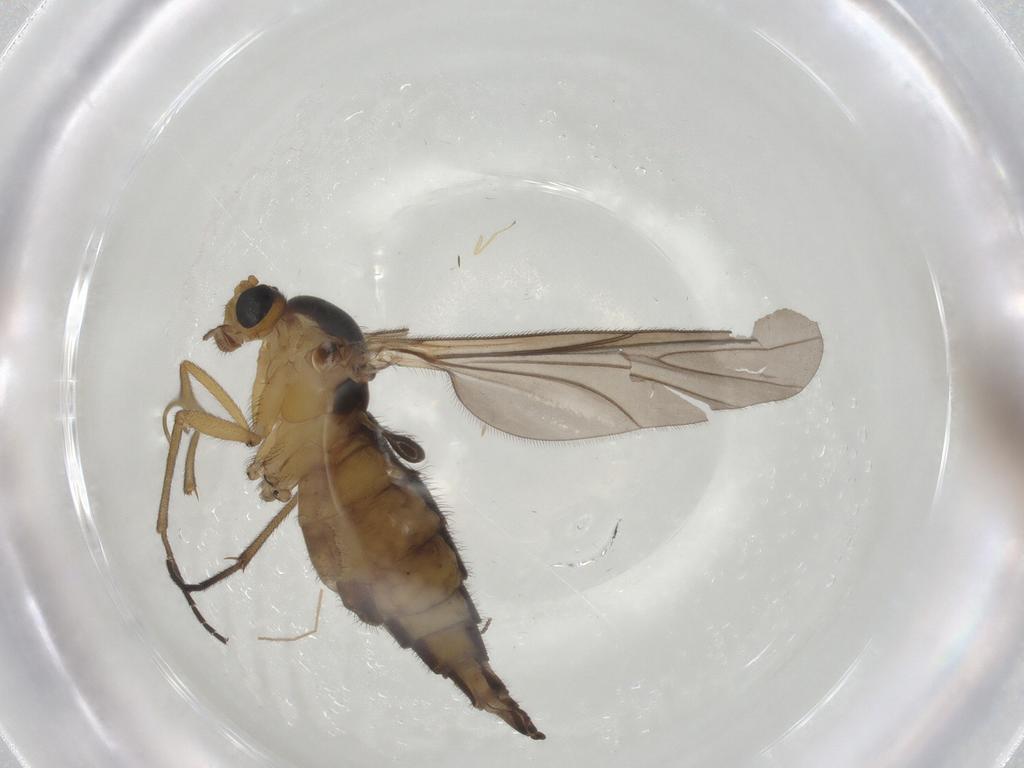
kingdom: Animalia
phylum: Arthropoda
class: Insecta
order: Diptera
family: Sciaridae
